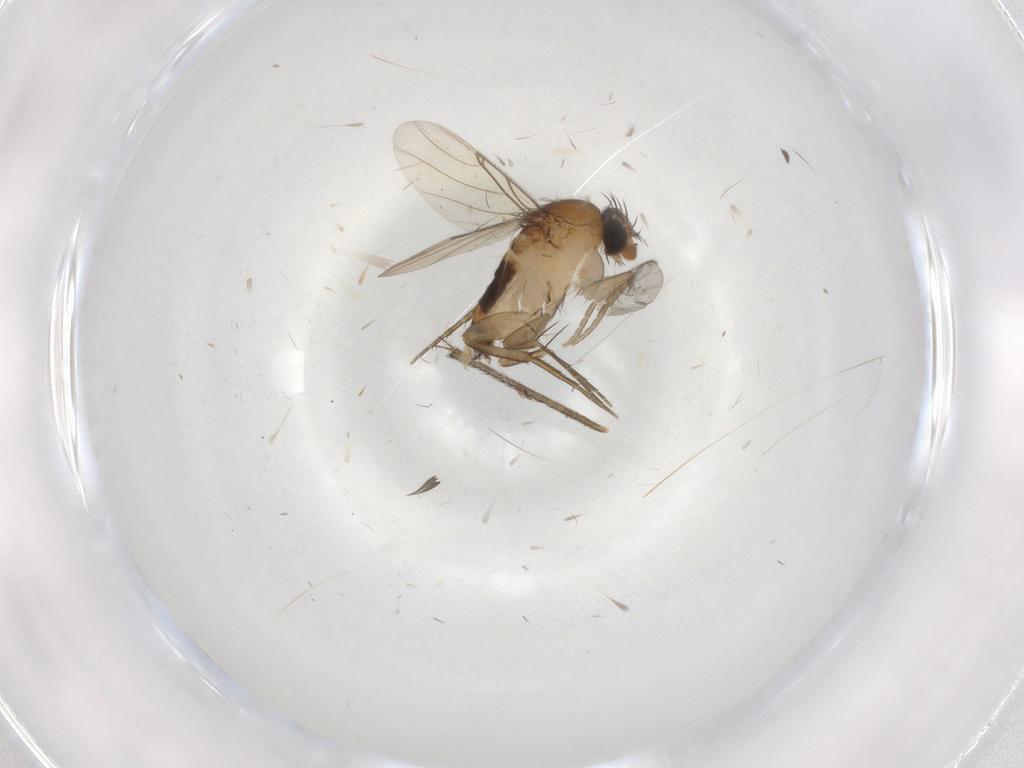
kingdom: Animalia
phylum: Arthropoda
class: Insecta
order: Diptera
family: Phoridae
